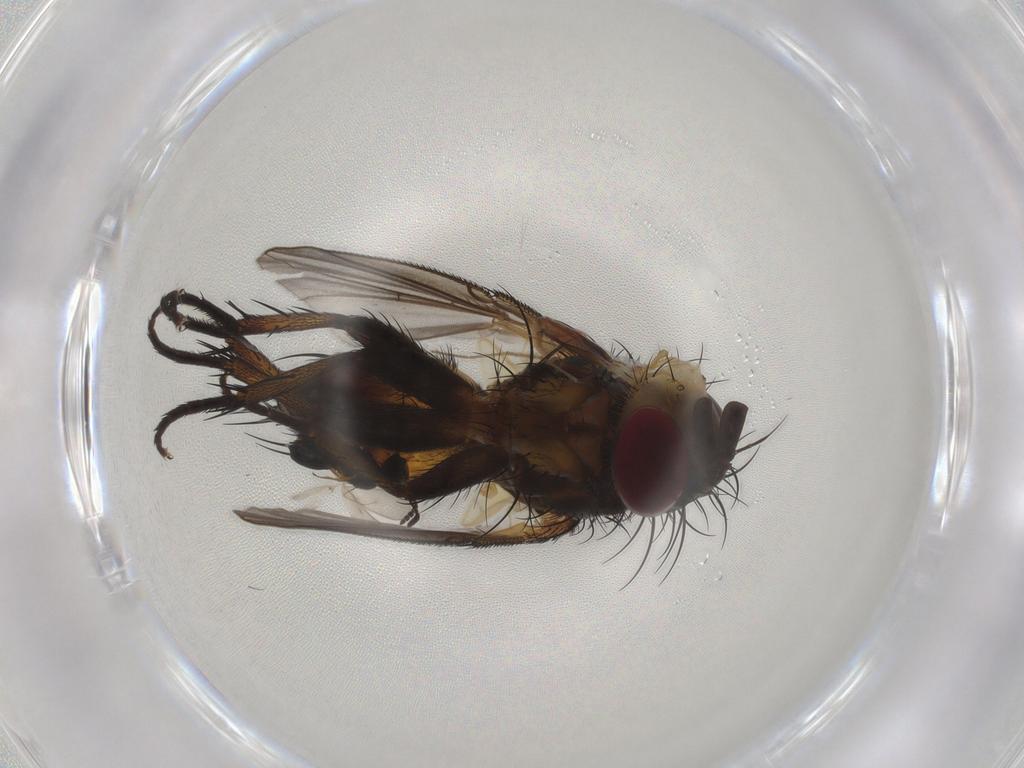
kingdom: Animalia
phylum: Arthropoda
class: Insecta
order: Diptera
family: Tachinidae
